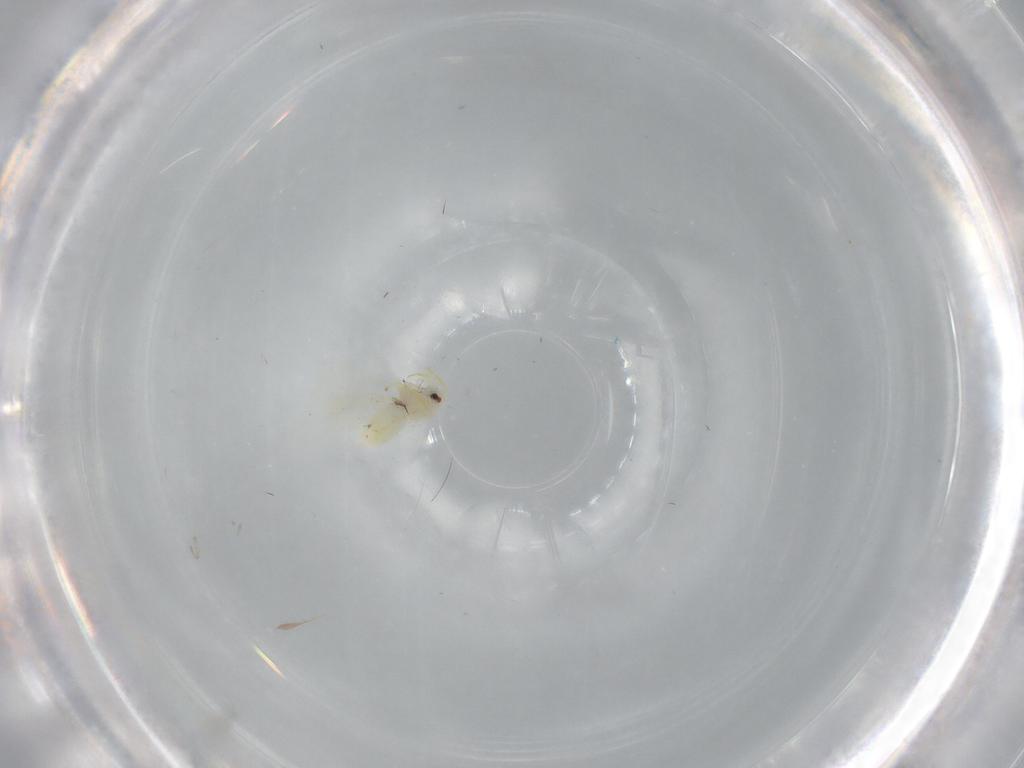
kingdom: Animalia
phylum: Arthropoda
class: Insecta
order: Hemiptera
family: Aleyrodidae
